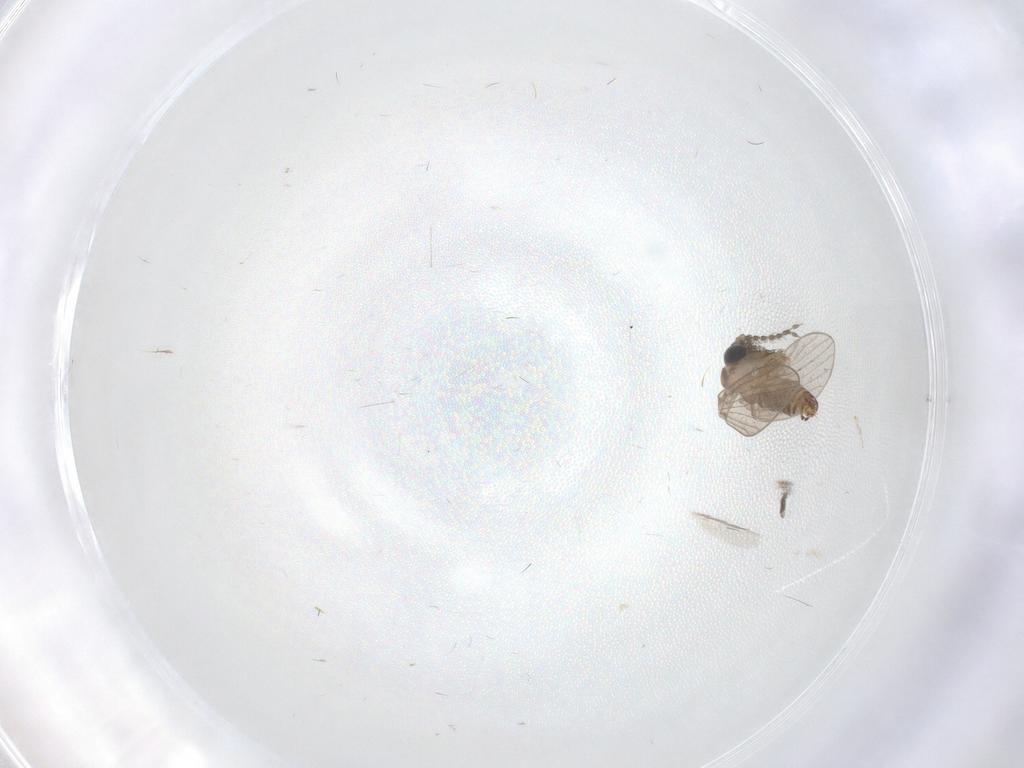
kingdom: Animalia
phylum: Arthropoda
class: Insecta
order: Diptera
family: Psychodidae
